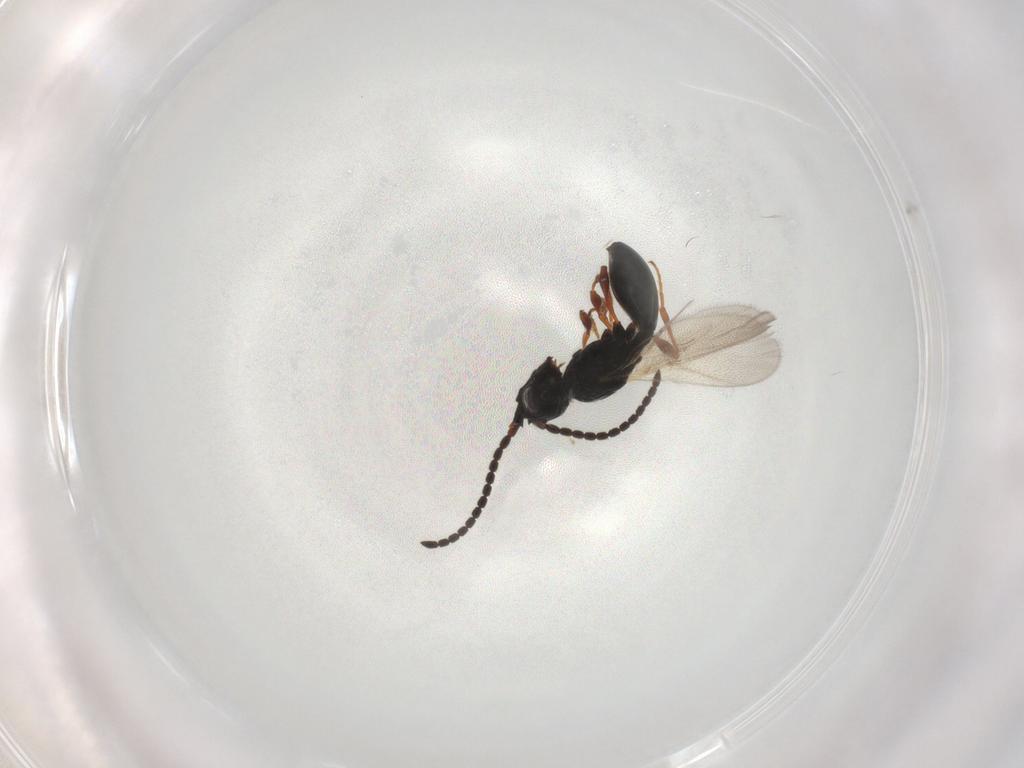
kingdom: Animalia
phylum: Arthropoda
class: Insecta
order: Hymenoptera
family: Diapriidae
